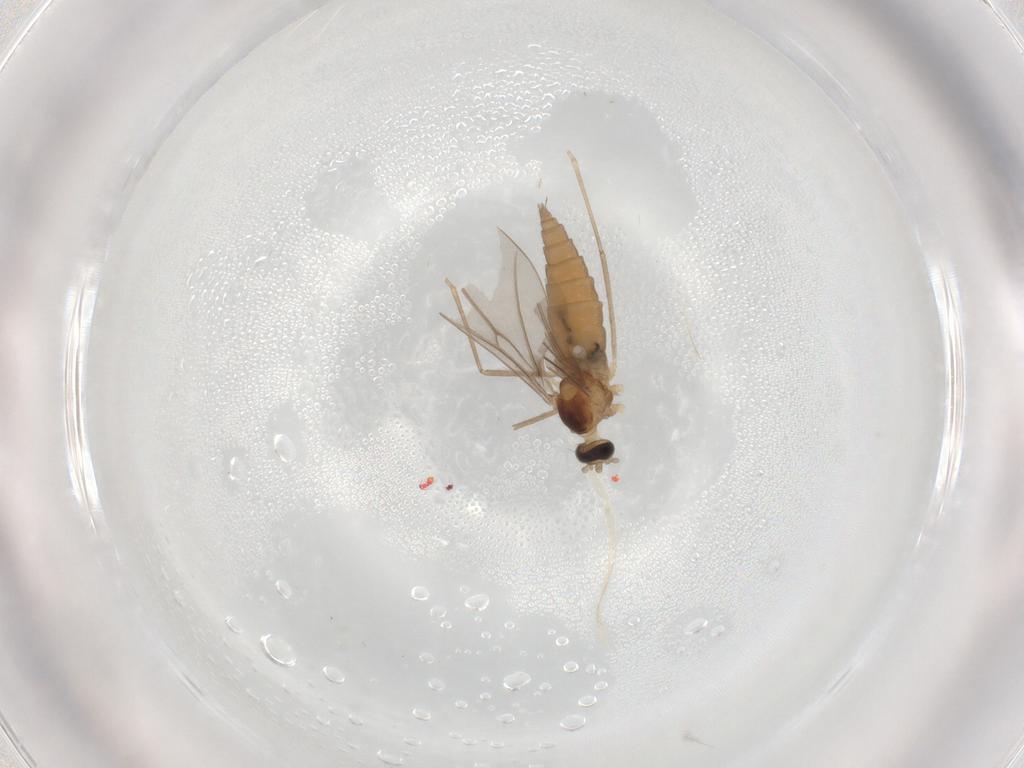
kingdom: Animalia
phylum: Arthropoda
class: Insecta
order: Diptera
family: Cecidomyiidae
